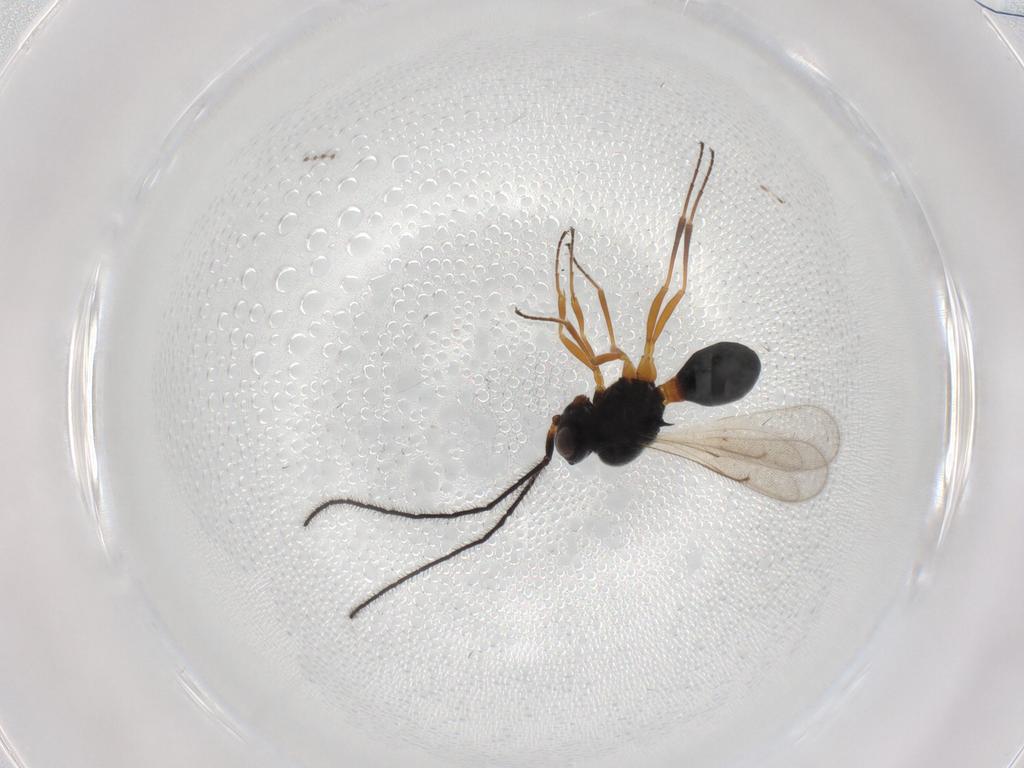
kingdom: Animalia
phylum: Arthropoda
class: Insecta
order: Hymenoptera
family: Scelionidae
